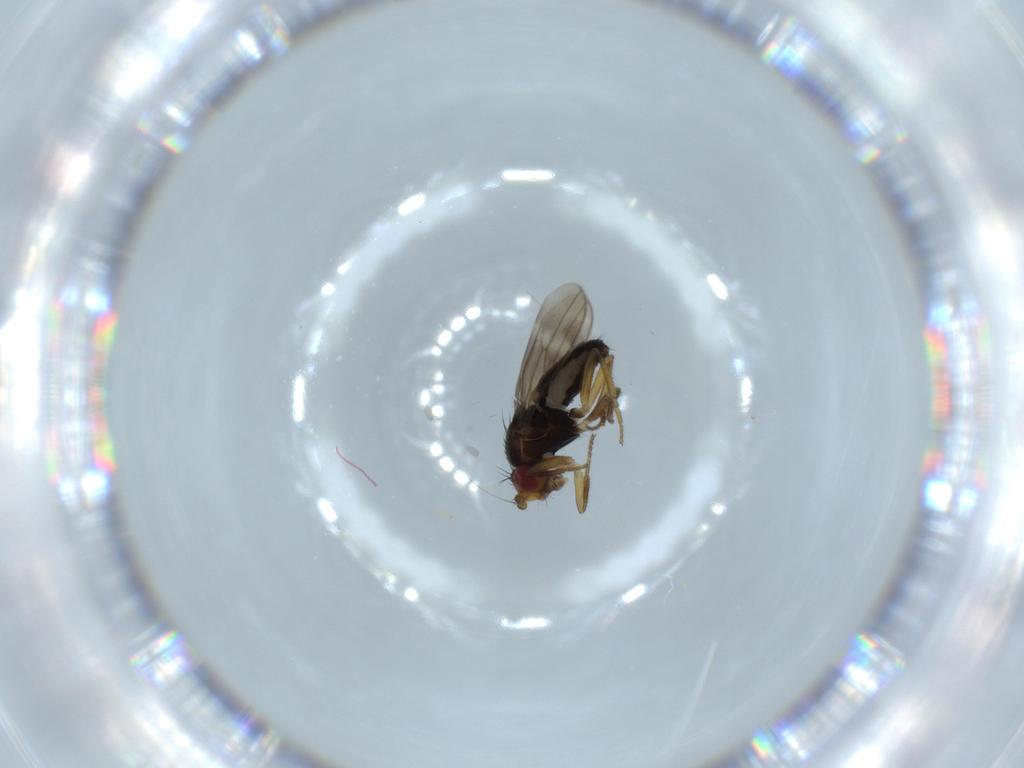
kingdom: Animalia
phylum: Arthropoda
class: Insecta
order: Diptera
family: Sphaeroceridae
